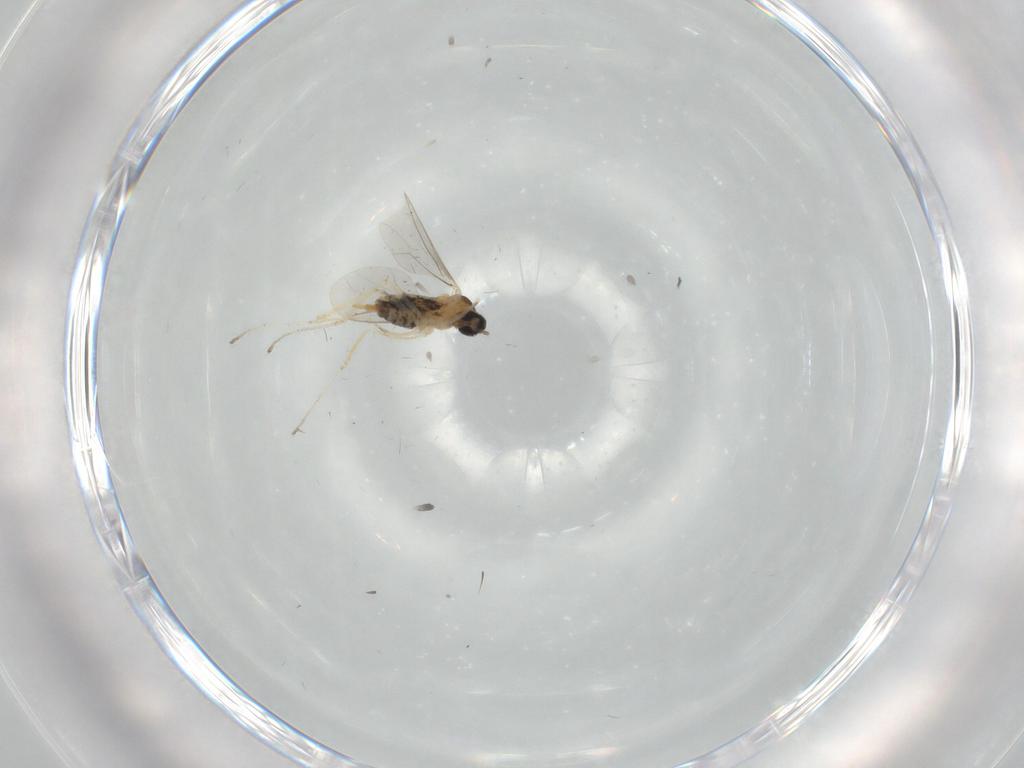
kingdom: Animalia
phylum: Arthropoda
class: Insecta
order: Diptera
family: Cecidomyiidae
